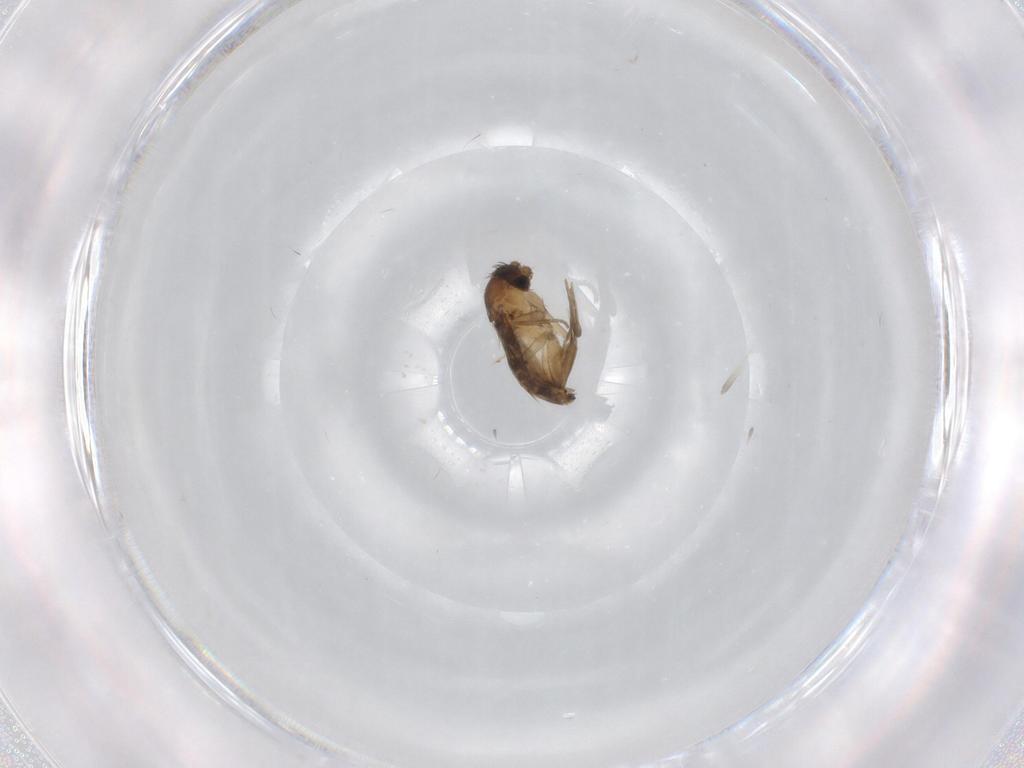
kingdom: Animalia
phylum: Arthropoda
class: Insecta
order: Diptera
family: Phoridae
